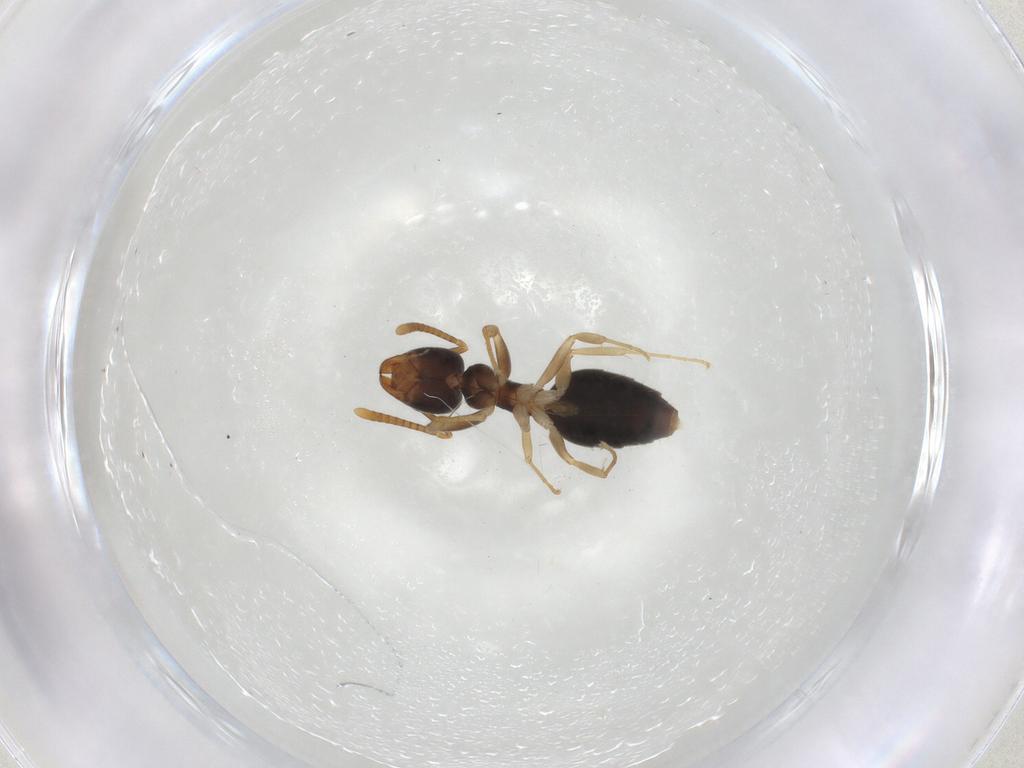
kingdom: Animalia
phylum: Arthropoda
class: Insecta
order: Hymenoptera
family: Formicidae
